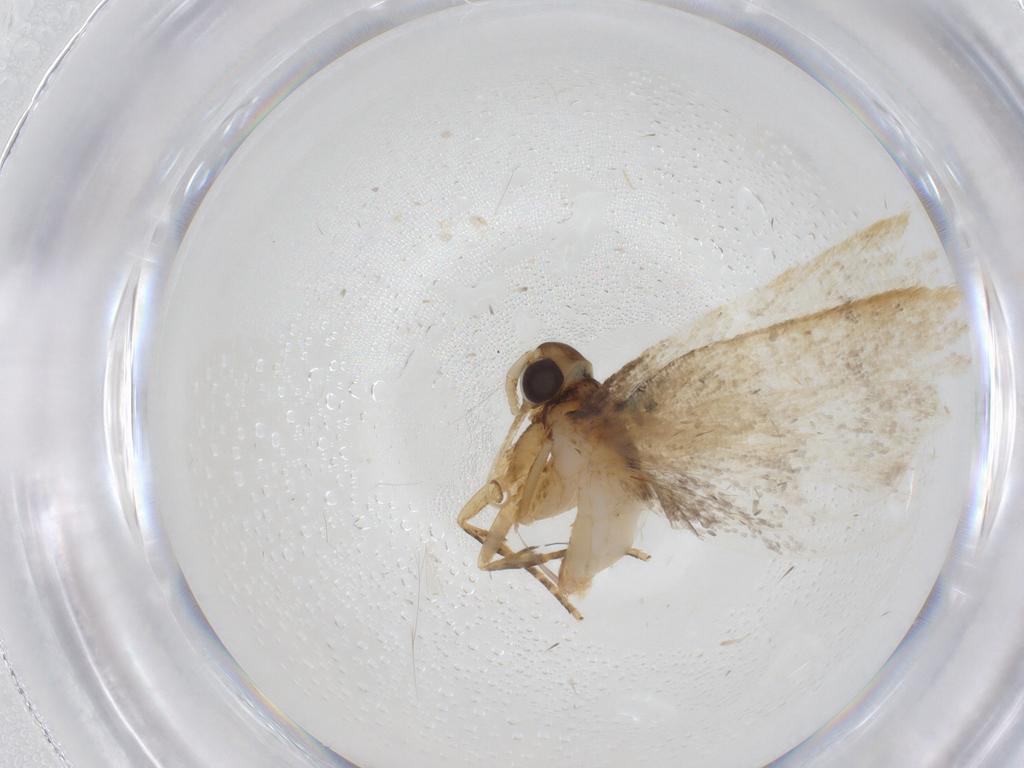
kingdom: Animalia
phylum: Arthropoda
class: Insecta
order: Lepidoptera
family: Lecithoceridae
